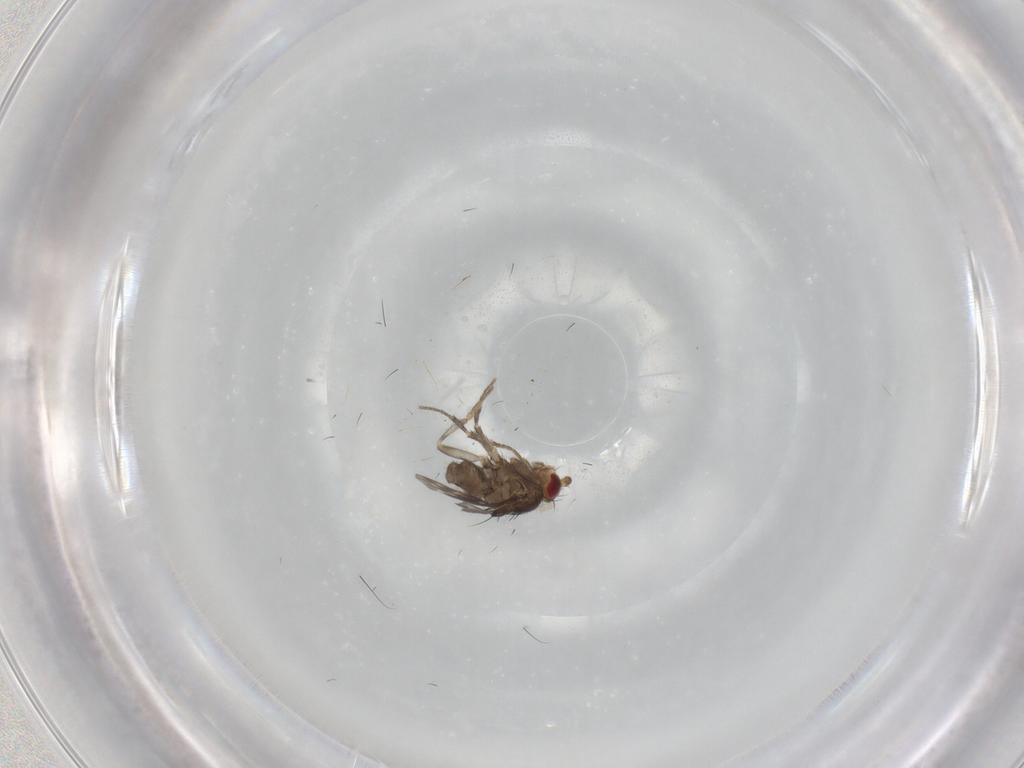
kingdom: Animalia
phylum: Arthropoda
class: Insecta
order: Diptera
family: Sphaeroceridae
